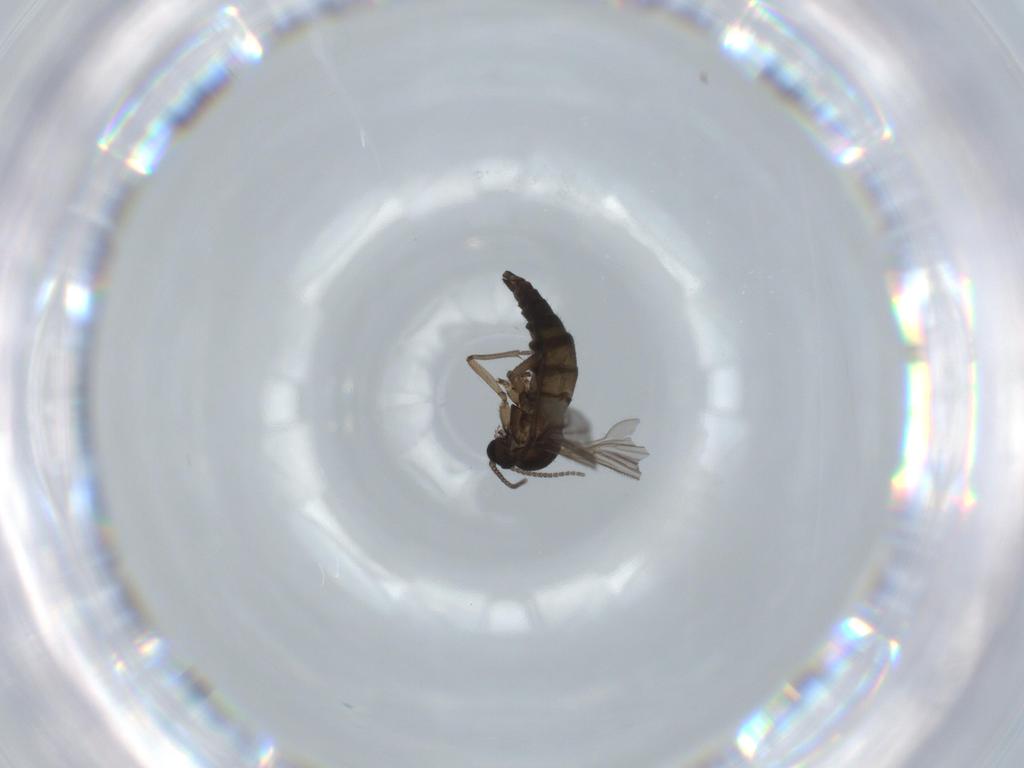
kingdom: Animalia
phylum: Arthropoda
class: Insecta
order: Diptera
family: Sciaridae
